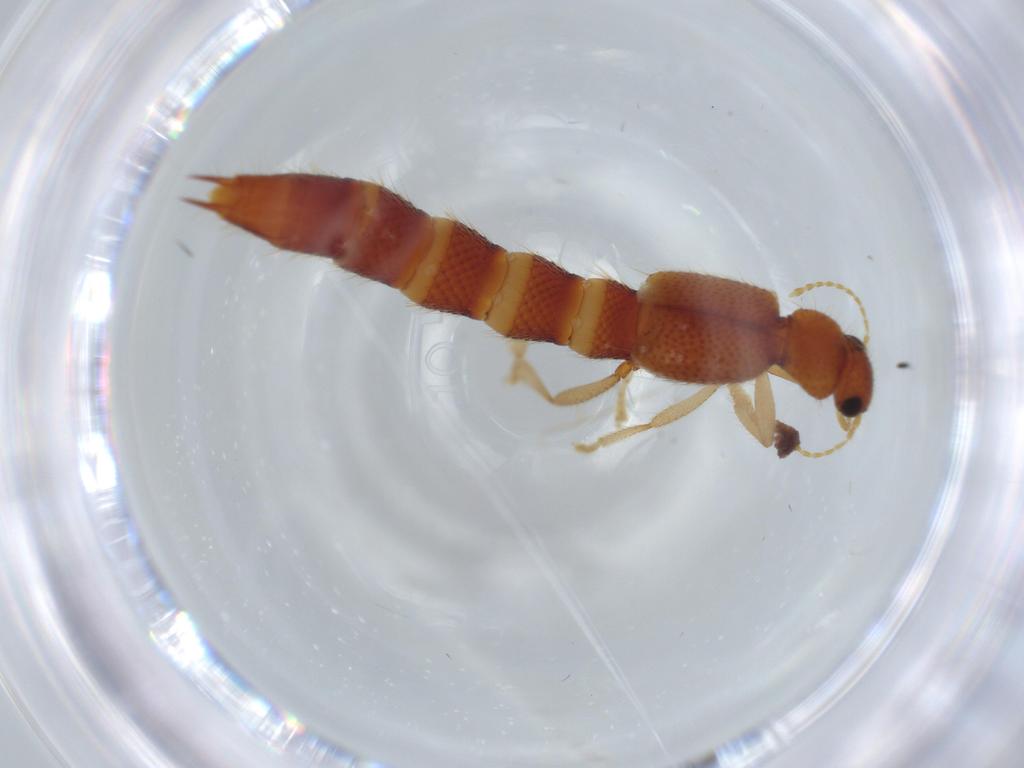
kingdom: Animalia
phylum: Arthropoda
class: Insecta
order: Coleoptera
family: Staphylinidae
